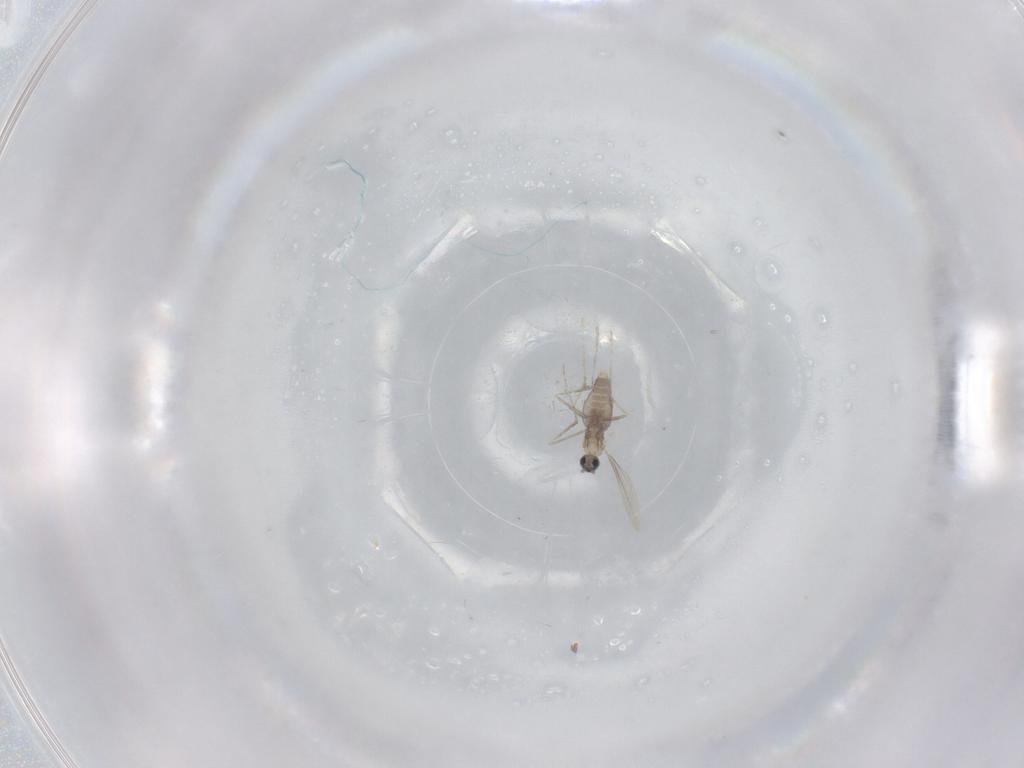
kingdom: Animalia
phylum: Arthropoda
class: Insecta
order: Diptera
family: Cecidomyiidae
